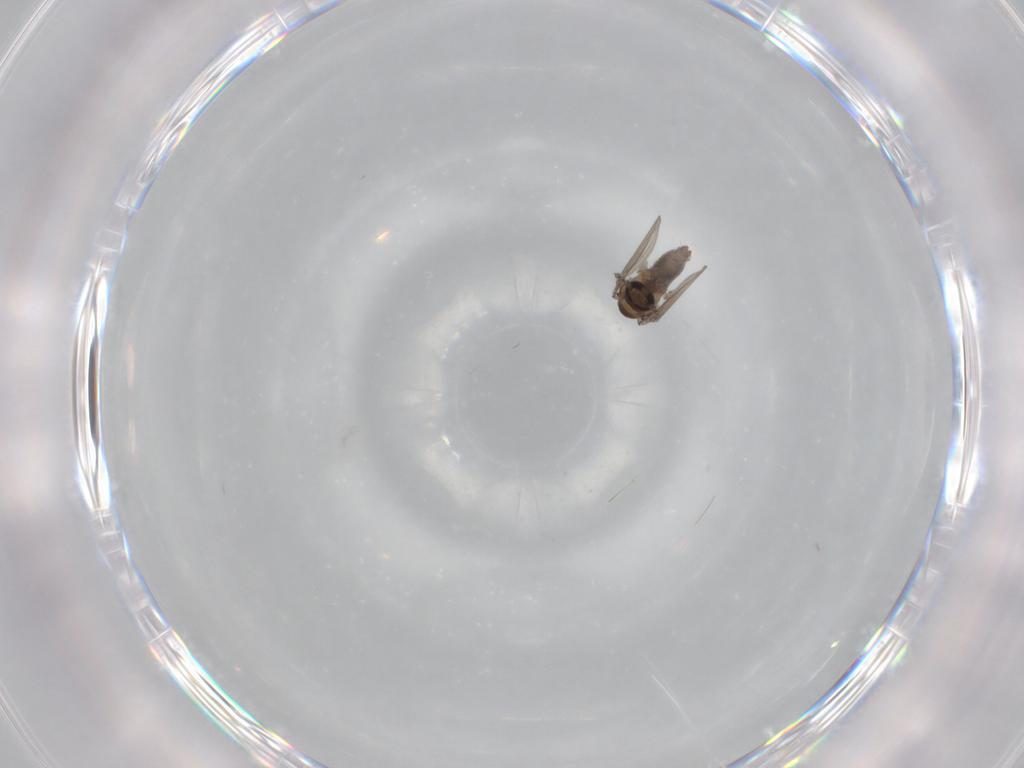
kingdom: Animalia
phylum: Arthropoda
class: Insecta
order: Diptera
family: Psychodidae
